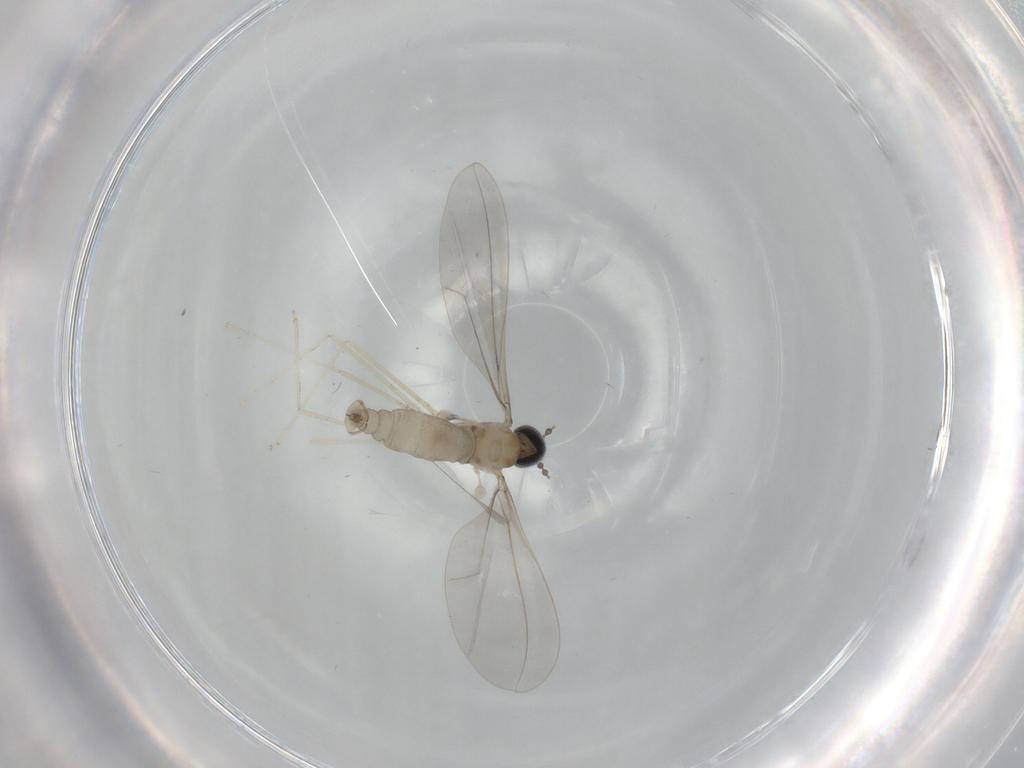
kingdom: Animalia
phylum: Arthropoda
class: Insecta
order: Diptera
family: Cecidomyiidae
